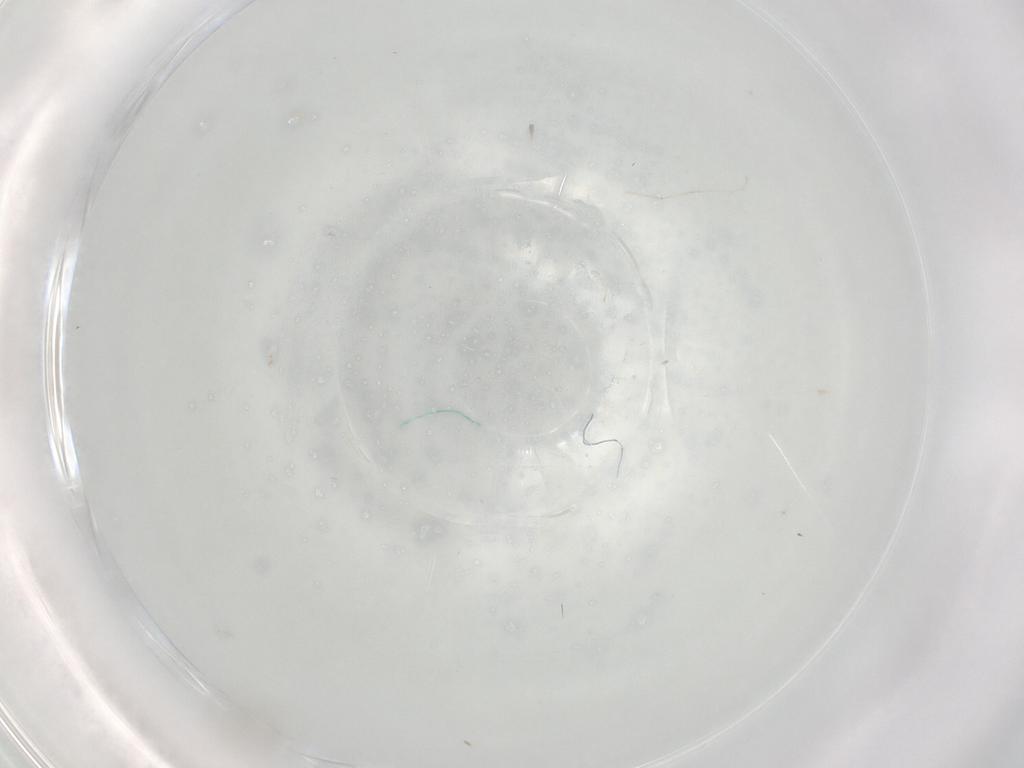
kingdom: Animalia
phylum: Arthropoda
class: Insecta
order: Diptera
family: Cecidomyiidae
